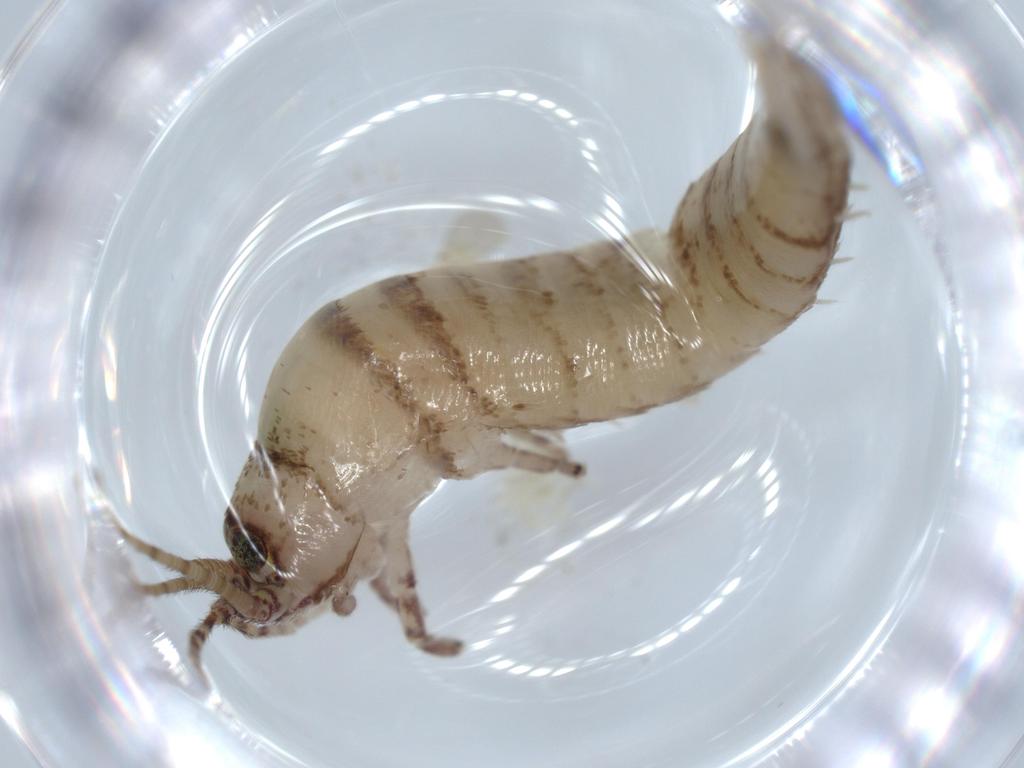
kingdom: Animalia
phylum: Arthropoda
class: Insecta
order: Archaeognatha
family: Machilidae
